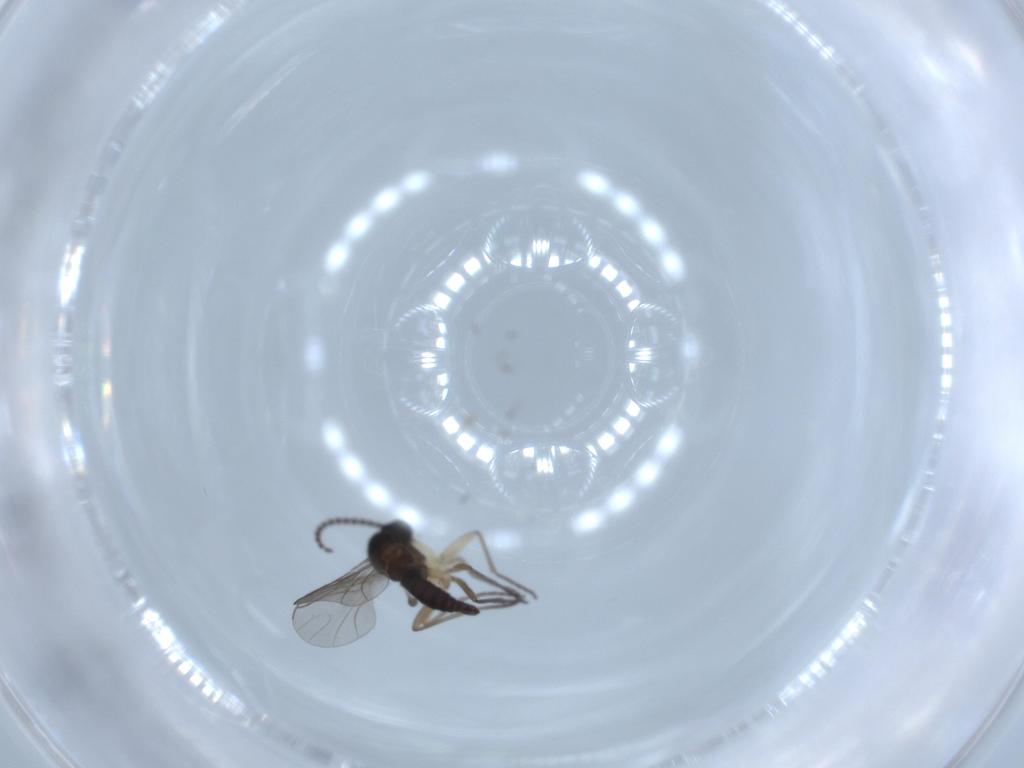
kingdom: Animalia
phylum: Arthropoda
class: Insecta
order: Diptera
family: Sciaridae
